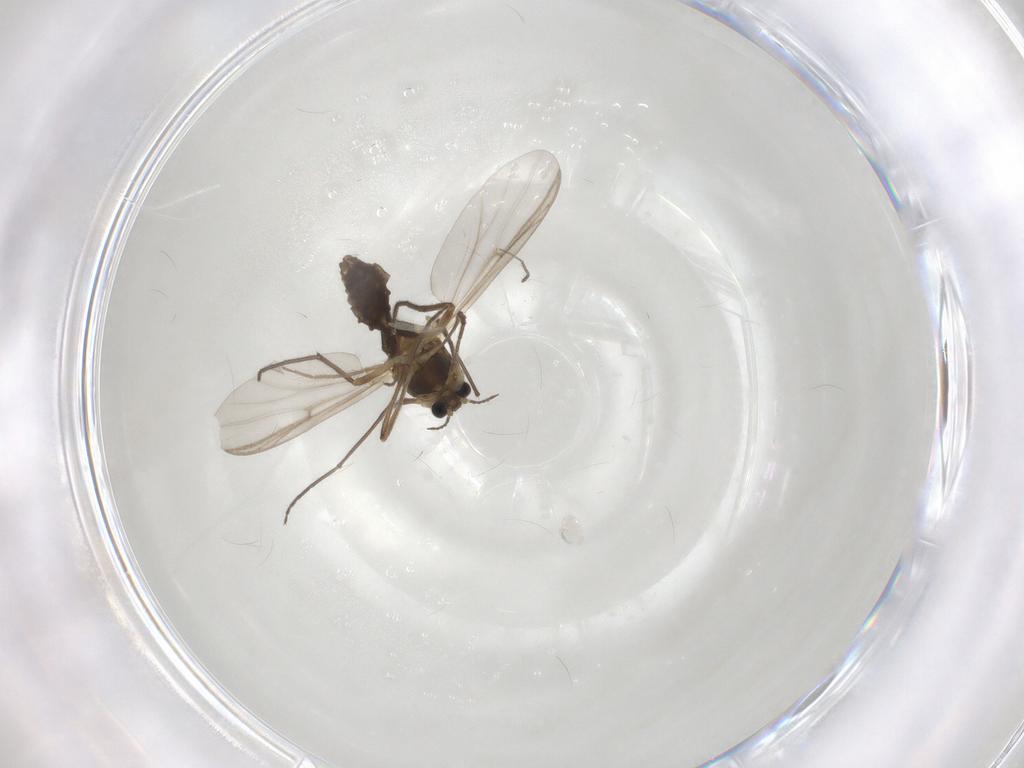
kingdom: Animalia
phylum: Arthropoda
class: Insecta
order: Diptera
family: Chironomidae
